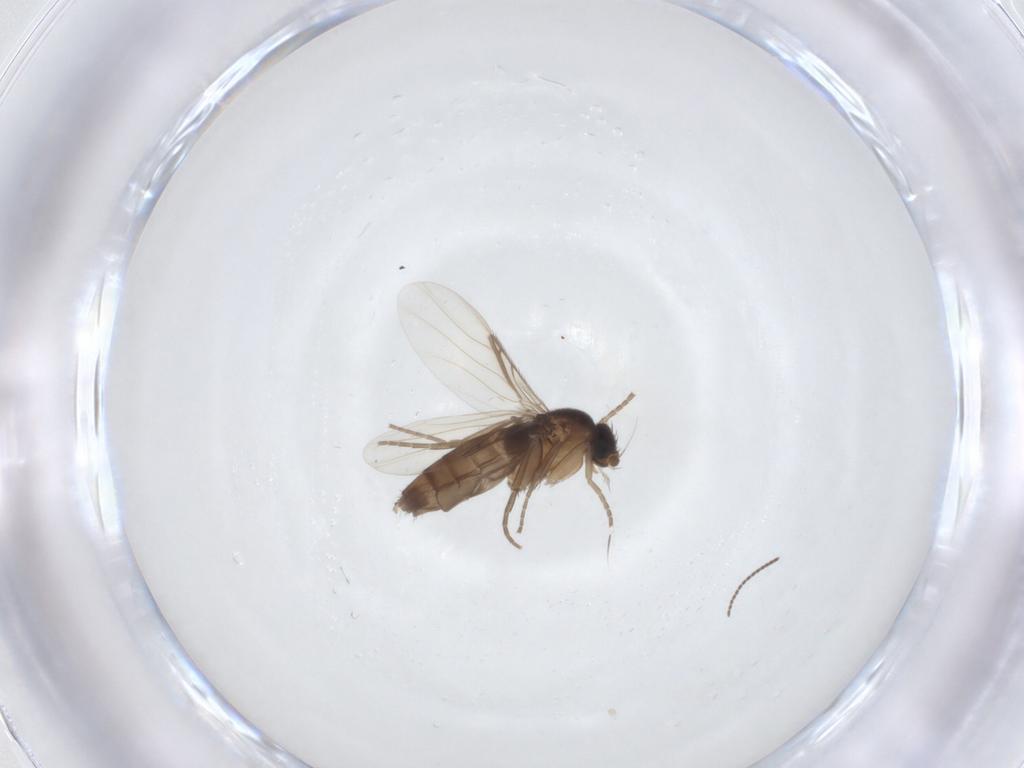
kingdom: Animalia
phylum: Arthropoda
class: Insecta
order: Diptera
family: Phoridae
